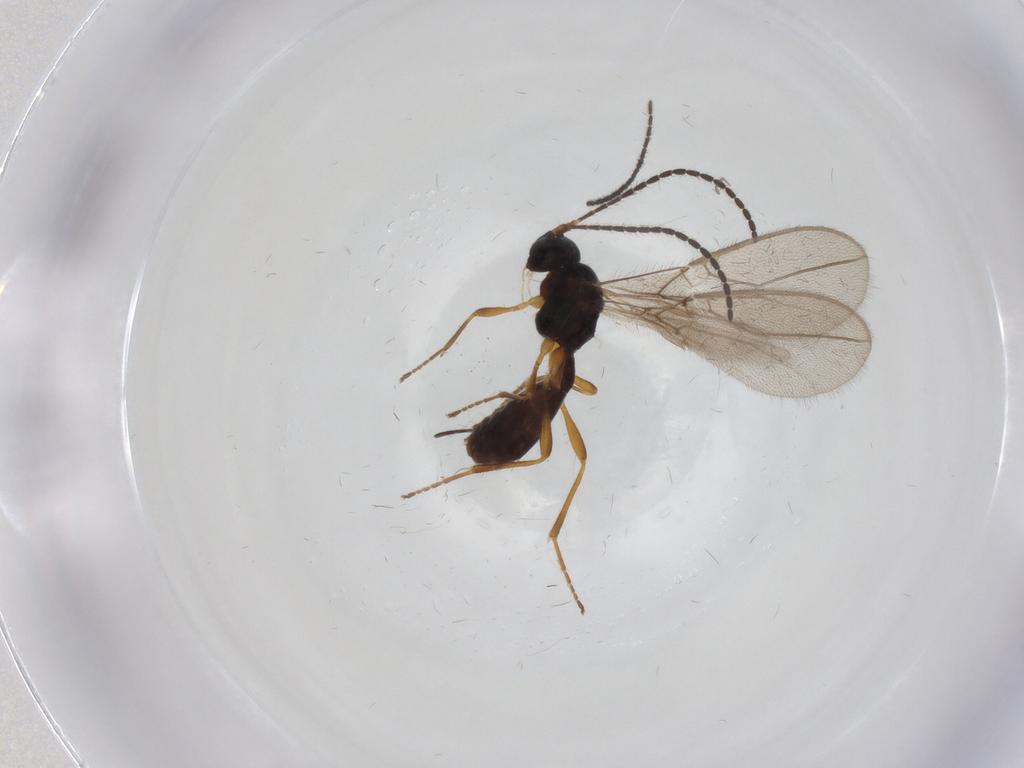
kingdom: Animalia
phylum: Arthropoda
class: Insecta
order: Hymenoptera
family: Braconidae
